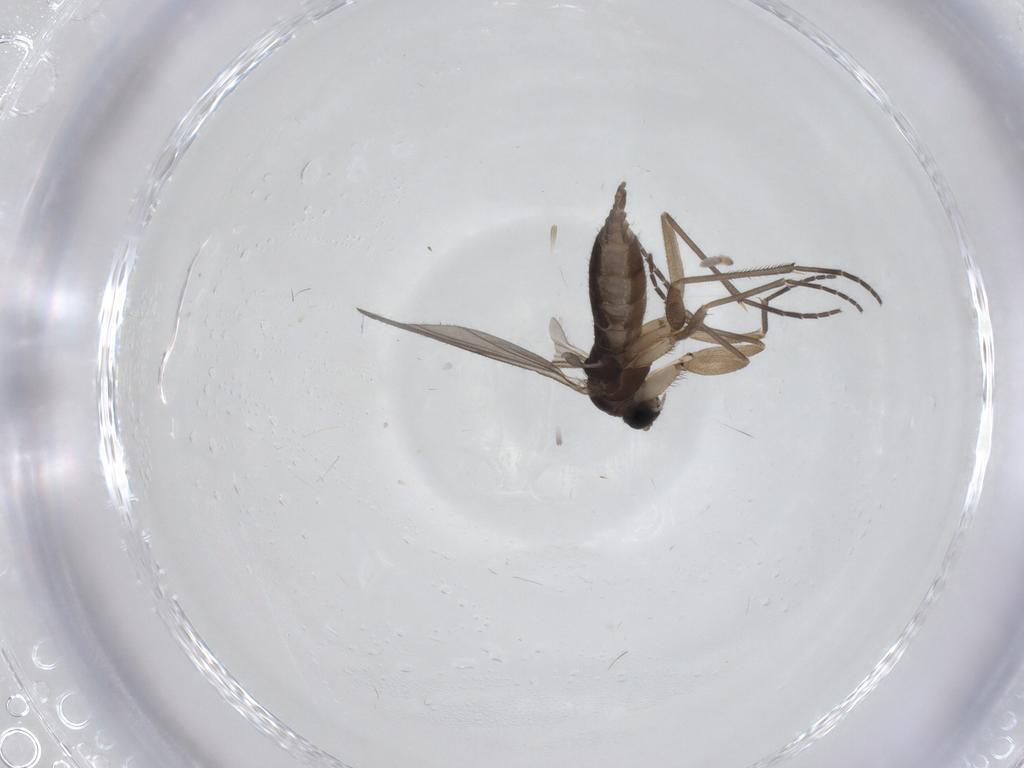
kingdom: Animalia
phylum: Arthropoda
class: Insecta
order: Diptera
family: Sciaridae
